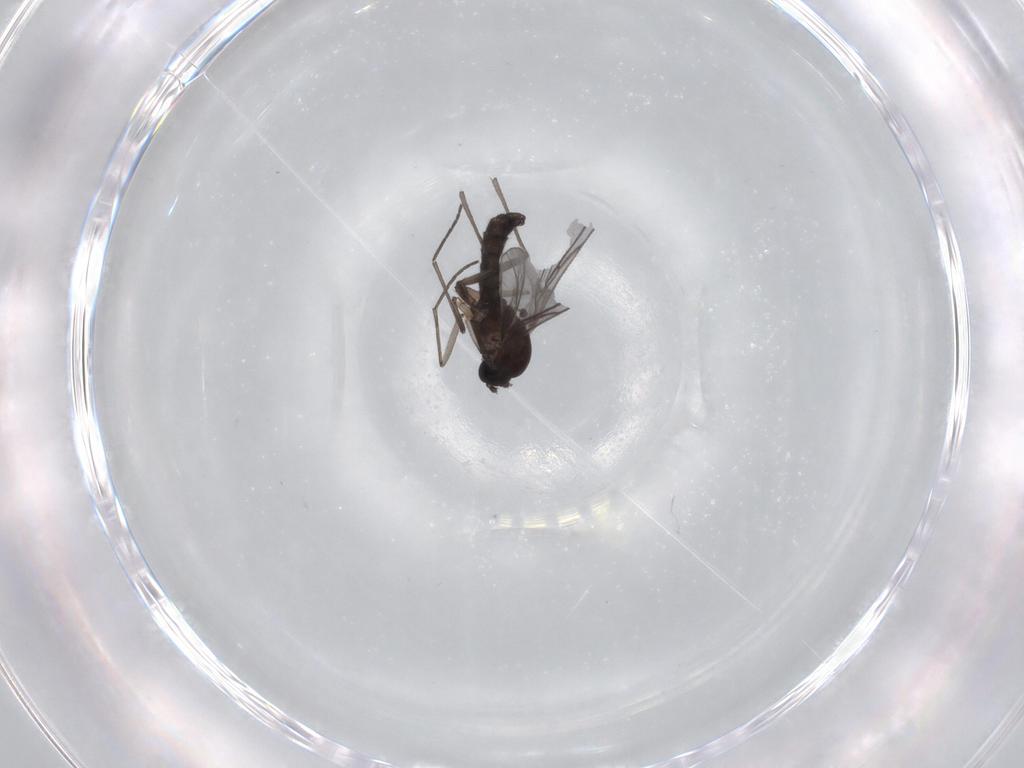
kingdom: Animalia
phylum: Arthropoda
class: Insecta
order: Diptera
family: Sciaridae
